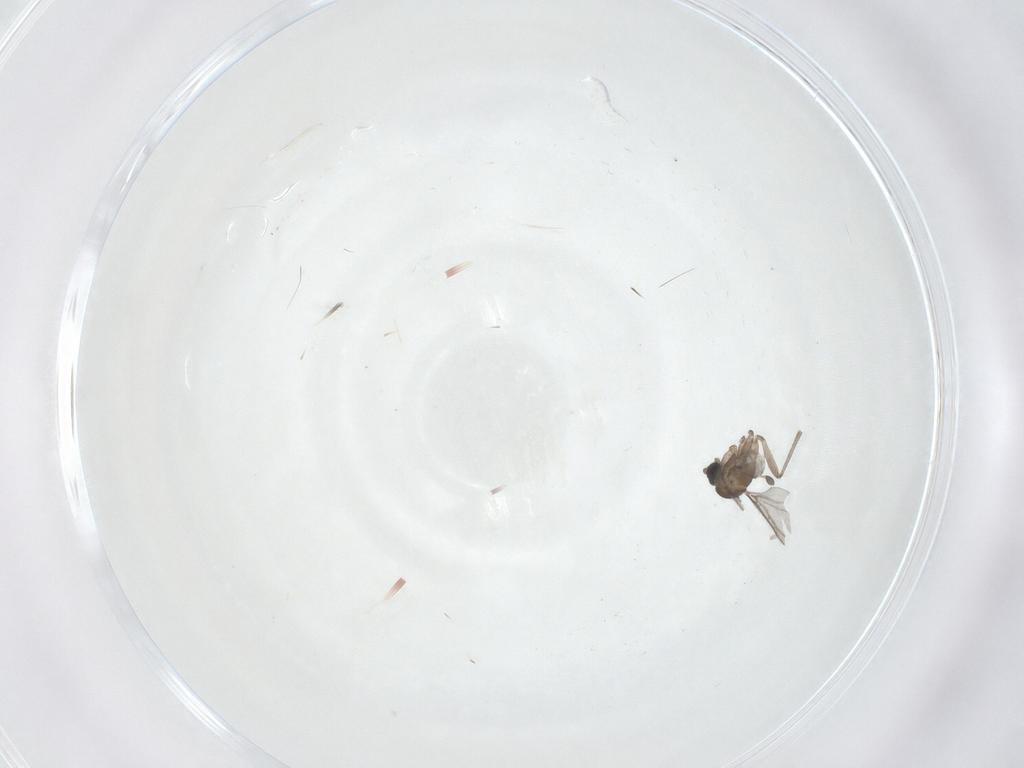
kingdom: Animalia
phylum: Arthropoda
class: Insecta
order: Diptera
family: Sciaridae
